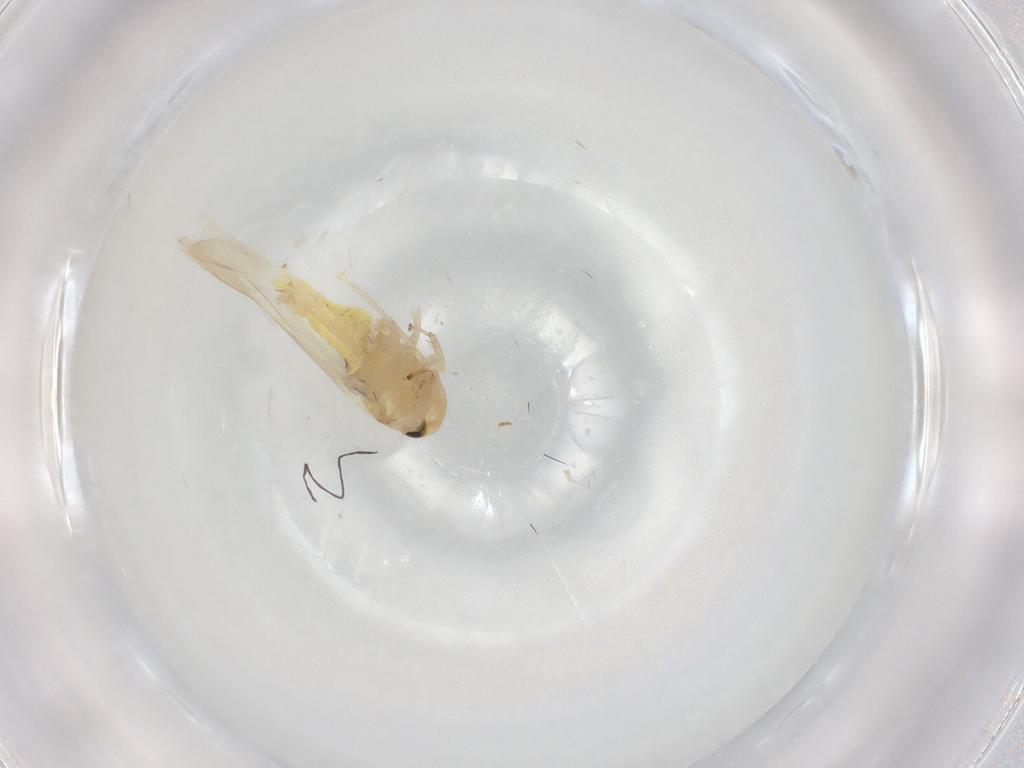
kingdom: Animalia
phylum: Arthropoda
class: Insecta
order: Hemiptera
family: Cicadellidae
